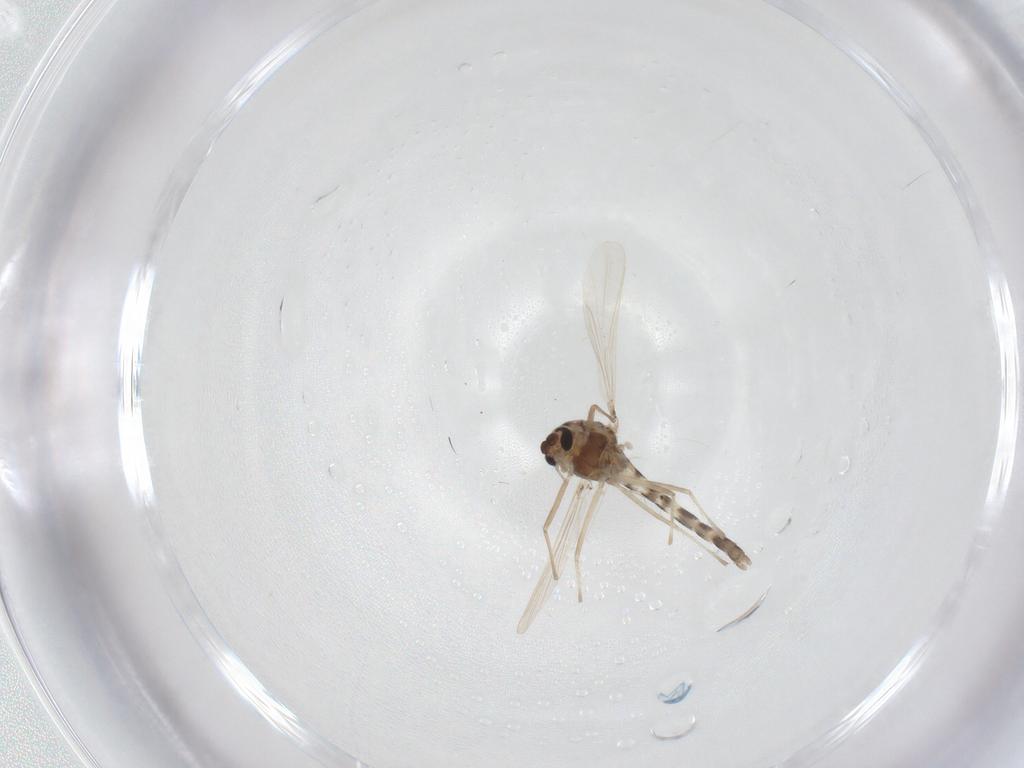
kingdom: Animalia
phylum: Arthropoda
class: Insecta
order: Diptera
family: Chironomidae
